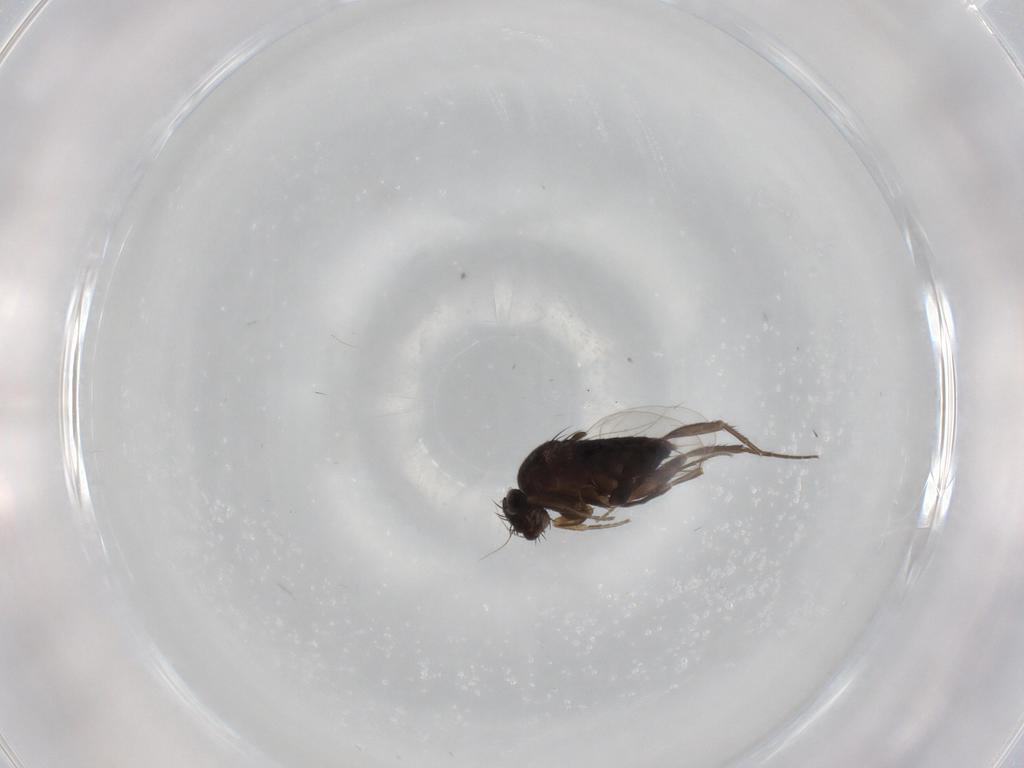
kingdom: Animalia
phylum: Arthropoda
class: Insecta
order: Diptera
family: Phoridae
